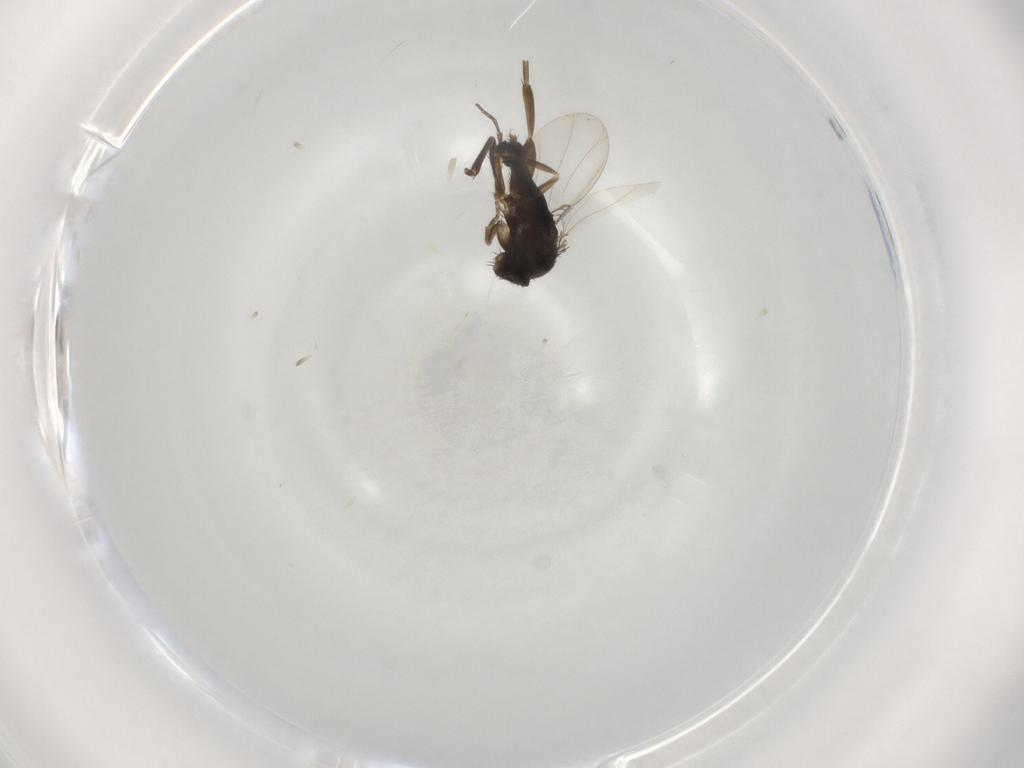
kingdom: Animalia
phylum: Arthropoda
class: Insecta
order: Diptera
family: Phoridae
